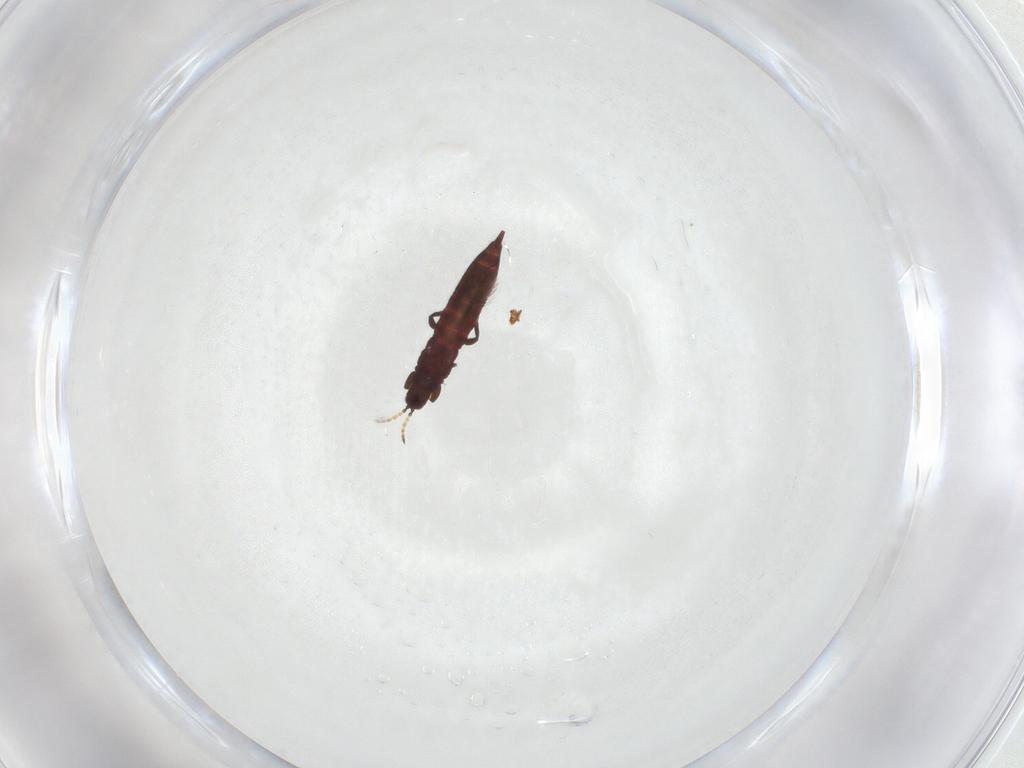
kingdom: Animalia
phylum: Arthropoda
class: Insecta
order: Thysanoptera
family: Phlaeothripidae
